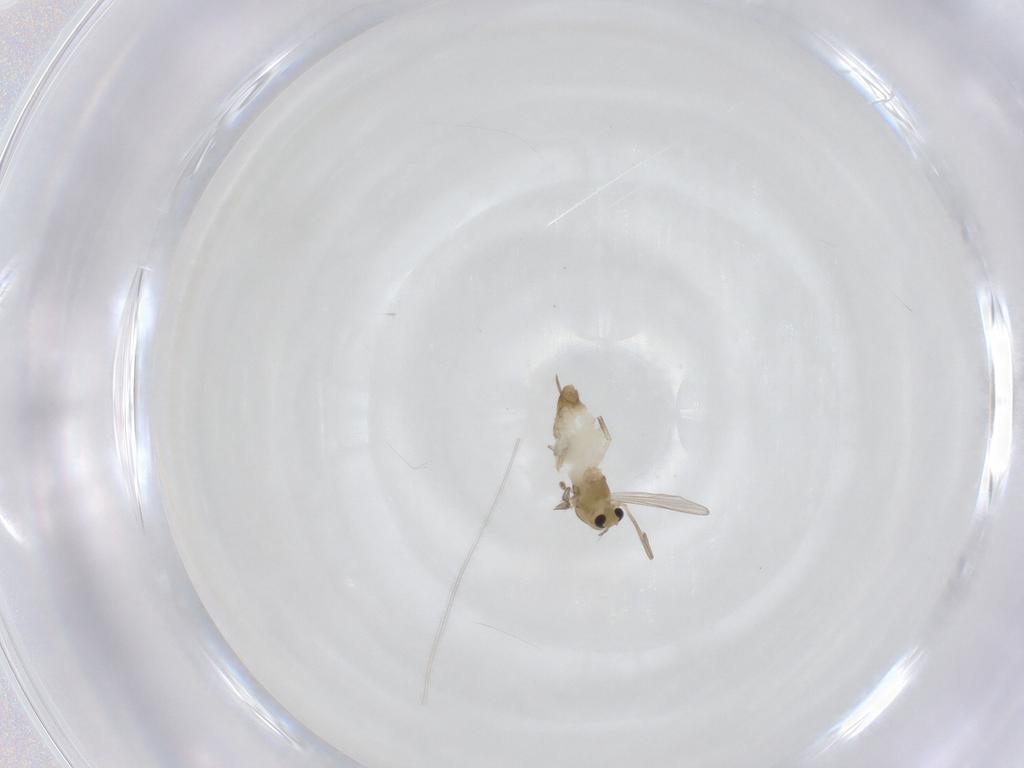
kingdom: Animalia
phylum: Arthropoda
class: Insecta
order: Diptera
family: Chironomidae
